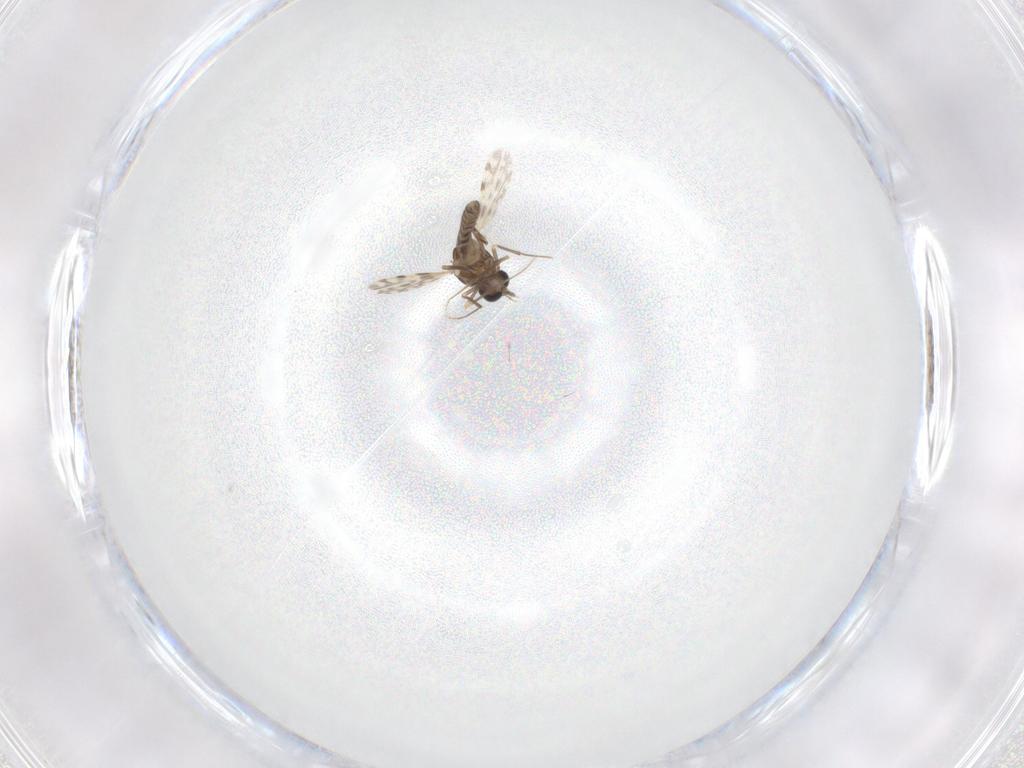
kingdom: Animalia
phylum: Arthropoda
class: Insecta
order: Diptera
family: Ceratopogonidae
